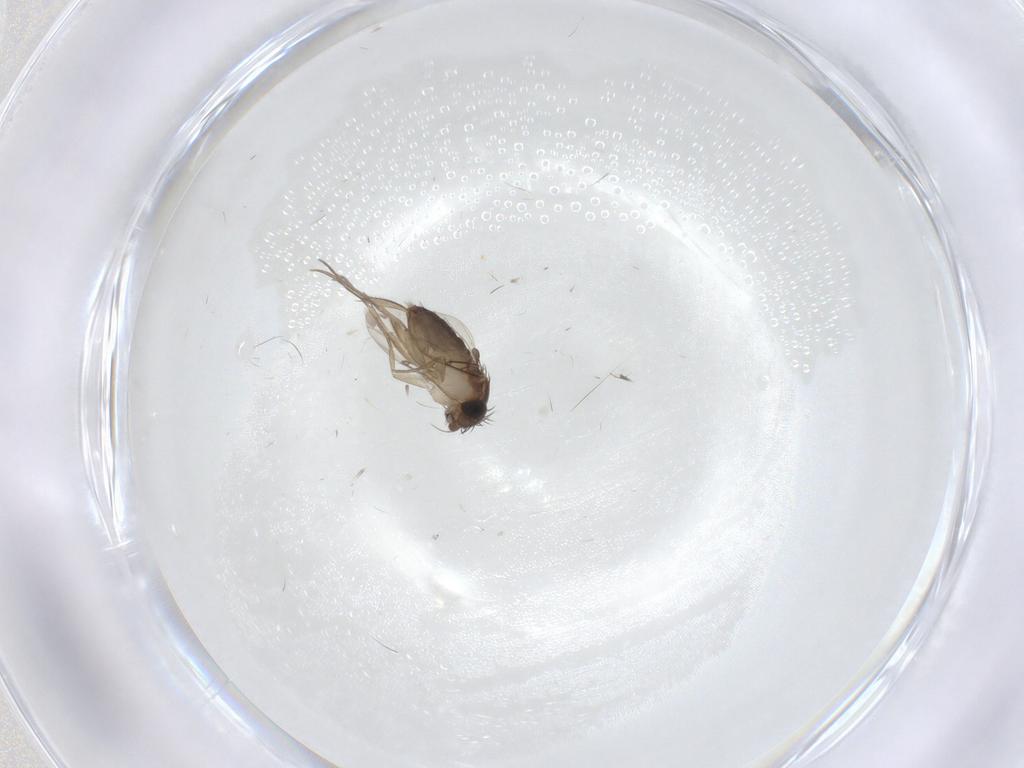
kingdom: Animalia
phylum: Arthropoda
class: Insecta
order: Diptera
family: Phoridae
